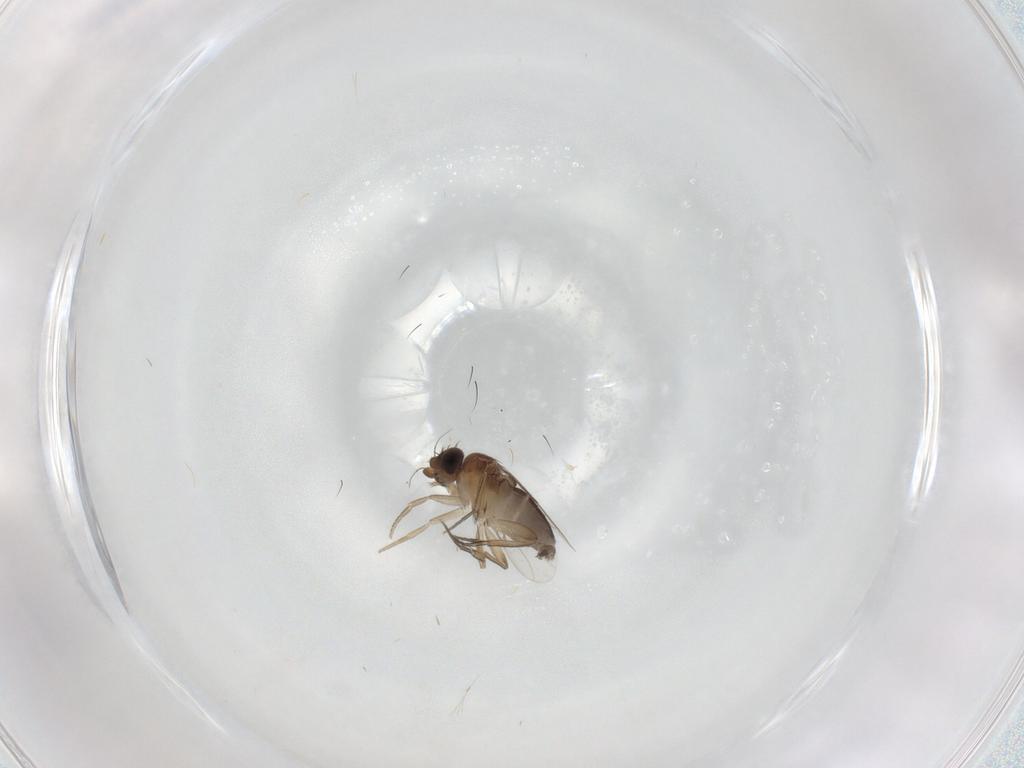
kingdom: Animalia
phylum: Arthropoda
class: Insecta
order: Diptera
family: Phoridae
